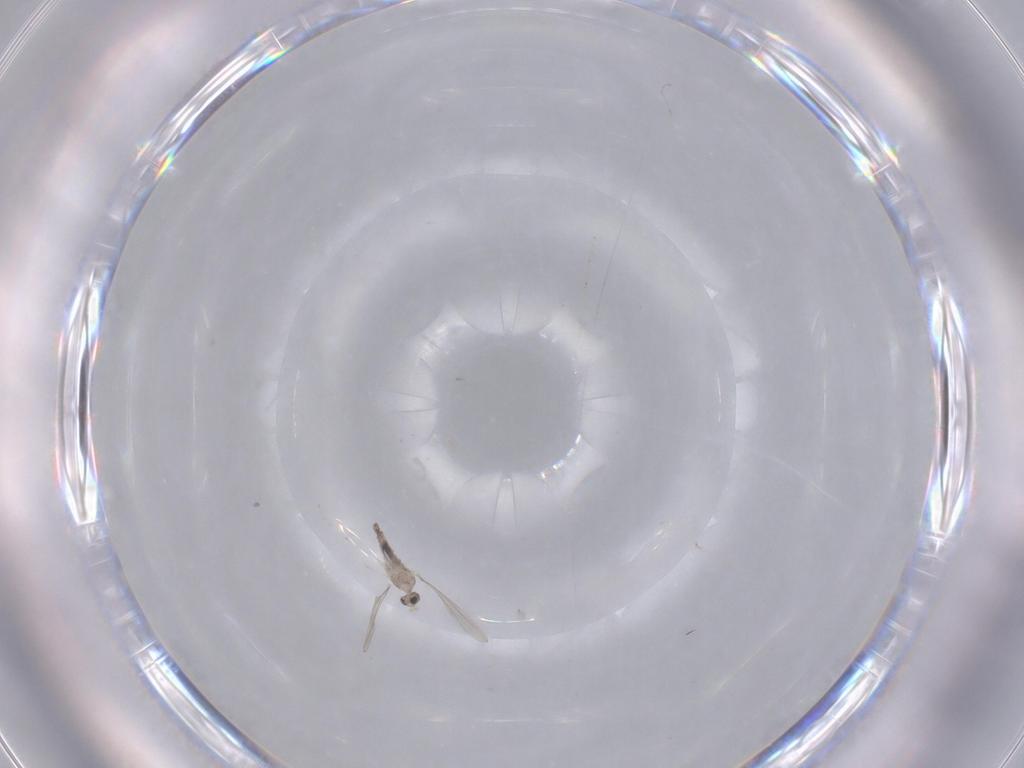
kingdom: Animalia
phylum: Arthropoda
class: Insecta
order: Diptera
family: Cecidomyiidae
